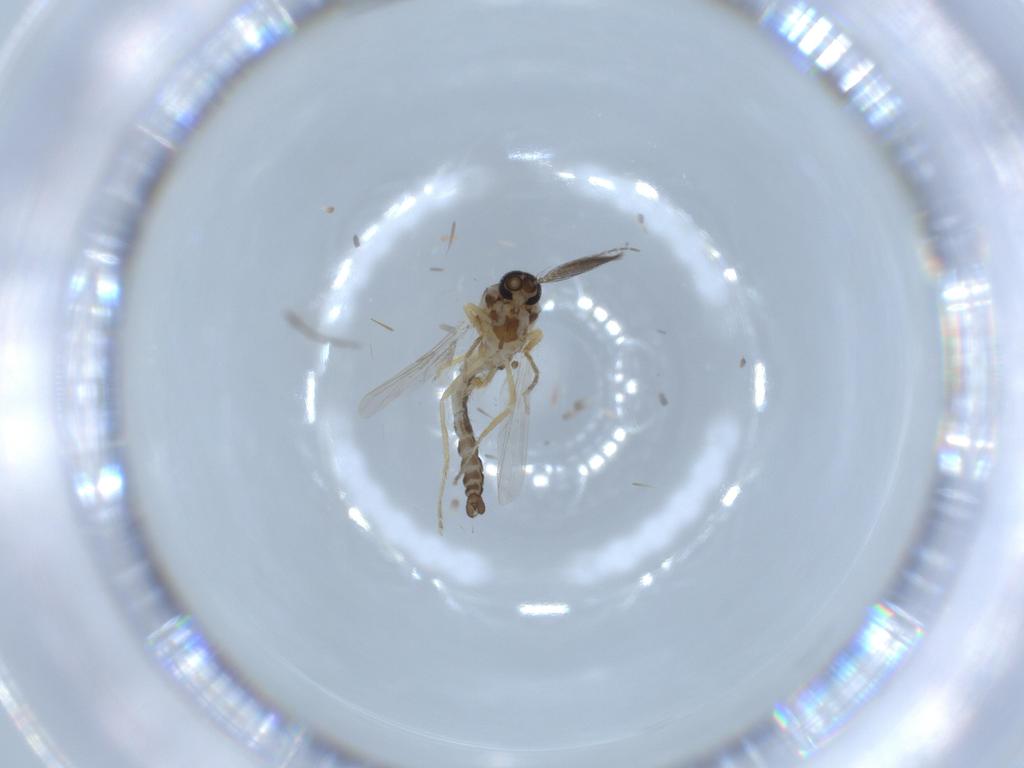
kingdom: Animalia
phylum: Arthropoda
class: Insecta
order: Diptera
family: Ceratopogonidae
